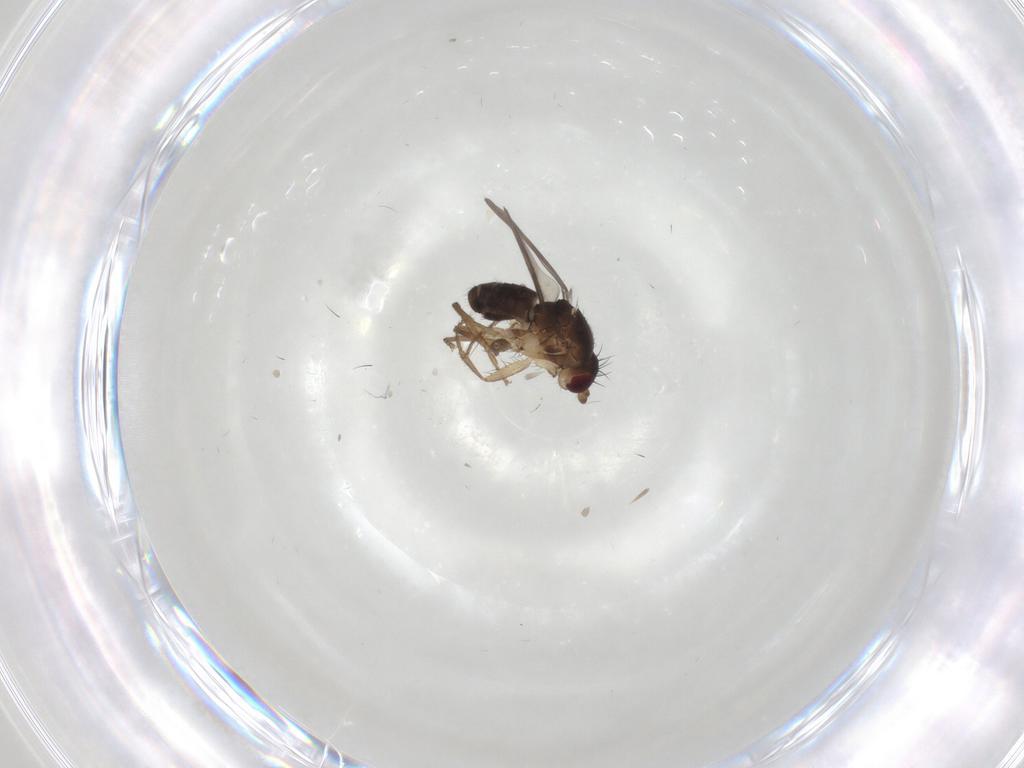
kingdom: Animalia
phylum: Arthropoda
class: Insecta
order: Diptera
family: Sphaeroceridae
